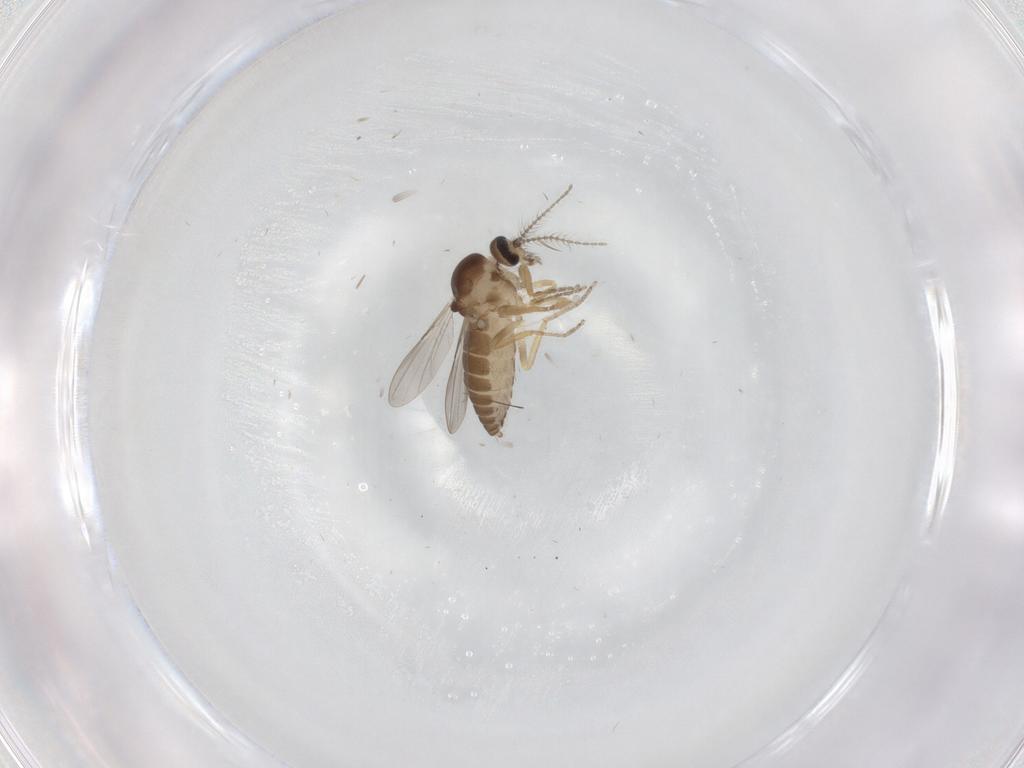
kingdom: Animalia
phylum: Arthropoda
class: Insecta
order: Diptera
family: Ceratopogonidae
